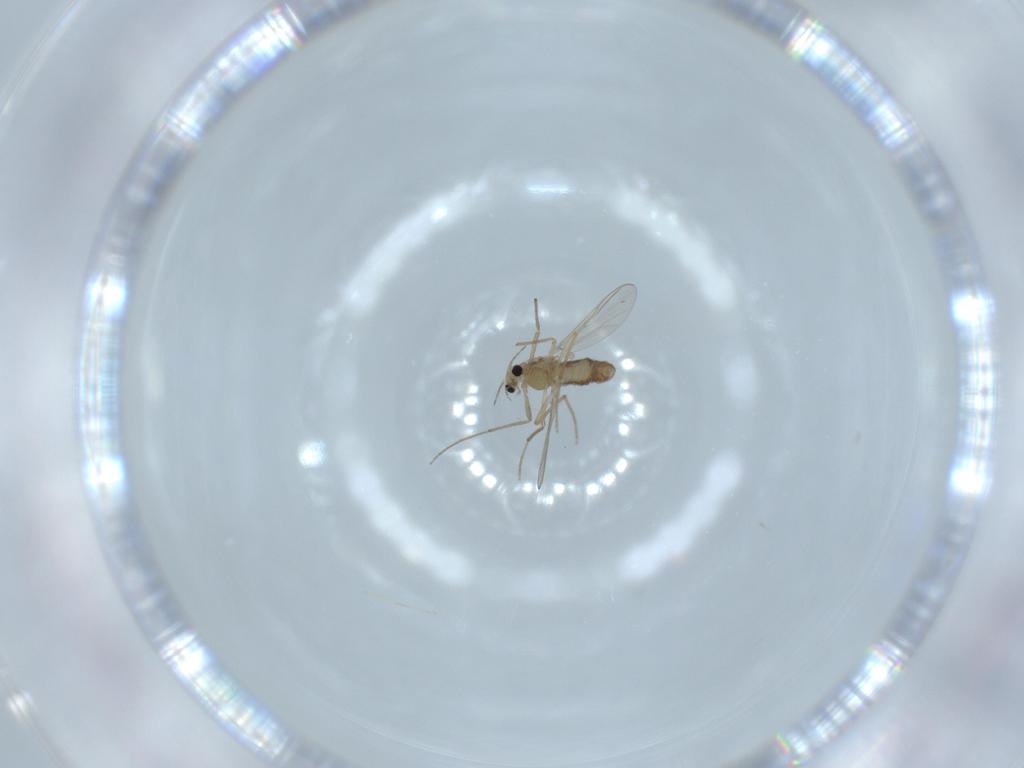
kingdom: Animalia
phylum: Arthropoda
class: Insecta
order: Diptera
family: Chironomidae
